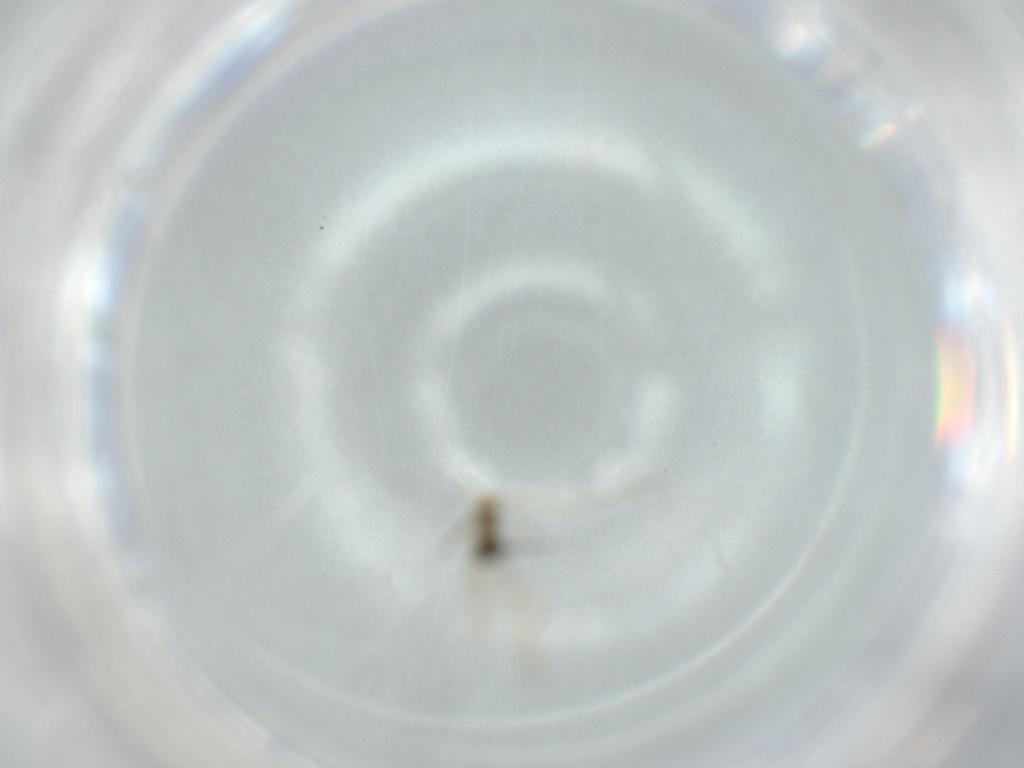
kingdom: Animalia
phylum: Arthropoda
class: Insecta
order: Diptera
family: Cecidomyiidae
